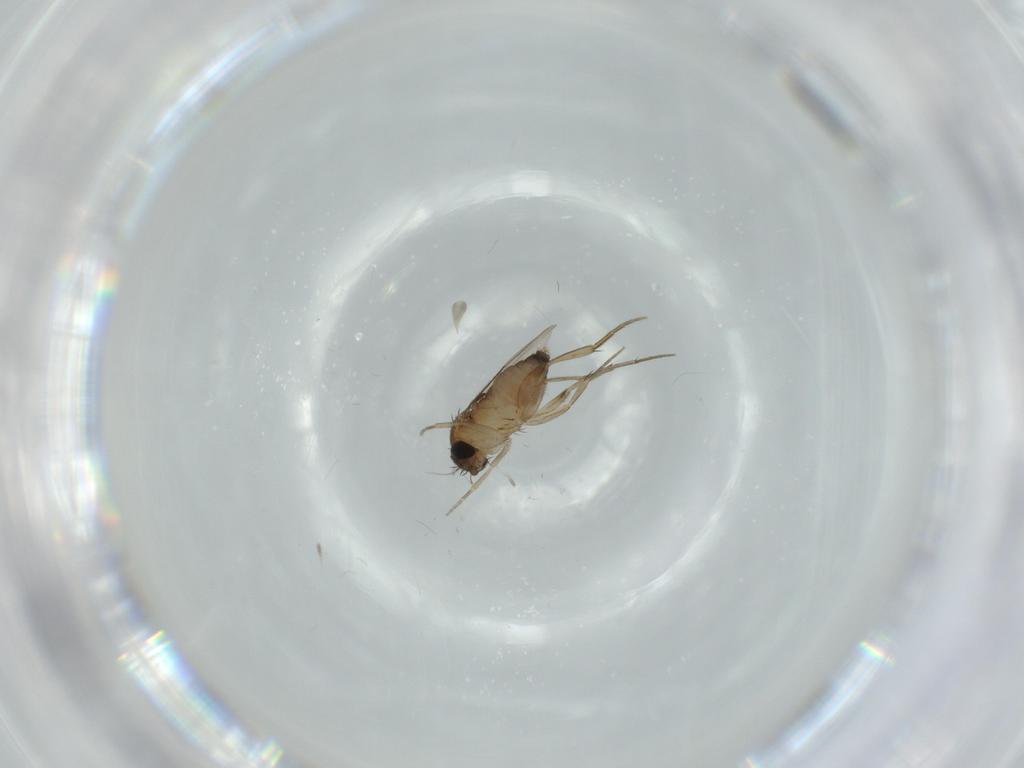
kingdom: Animalia
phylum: Arthropoda
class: Insecta
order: Diptera
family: Phoridae
